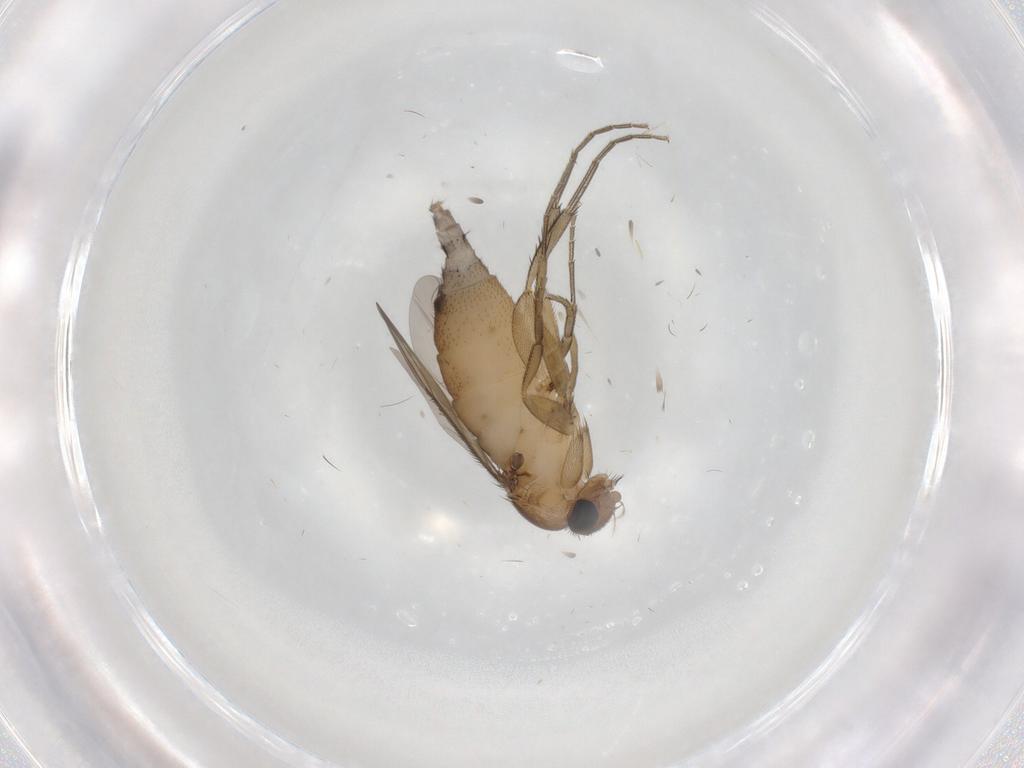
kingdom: Animalia
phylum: Arthropoda
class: Insecta
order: Diptera
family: Phoridae
